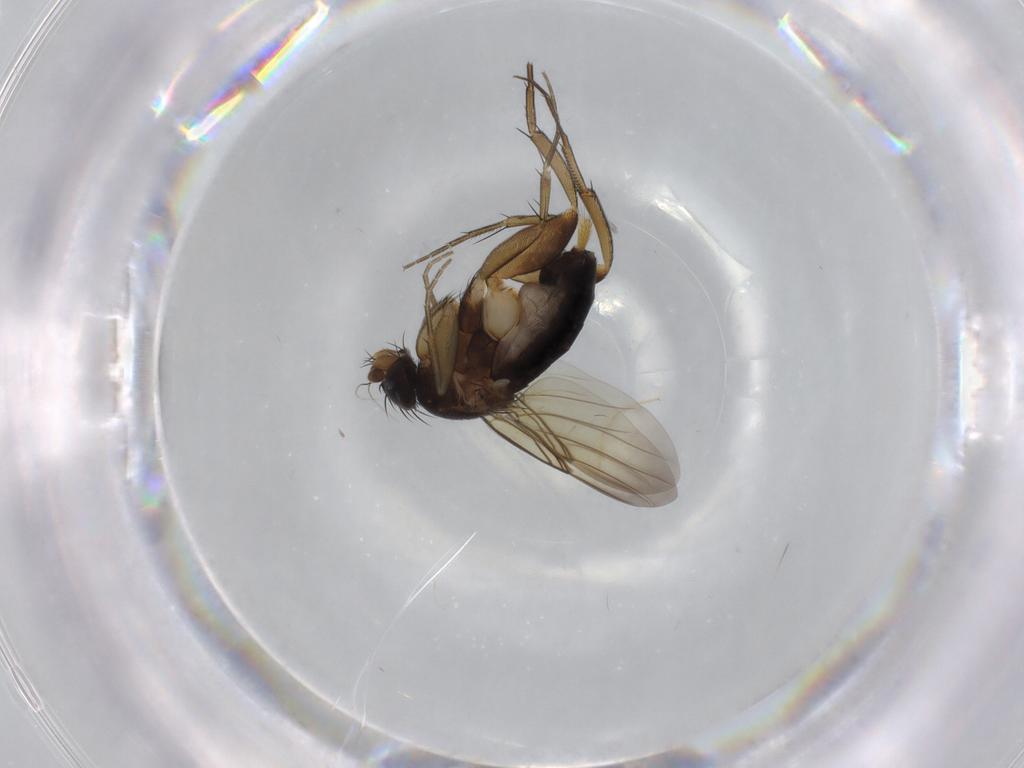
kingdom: Animalia
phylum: Arthropoda
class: Insecta
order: Diptera
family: Phoridae
